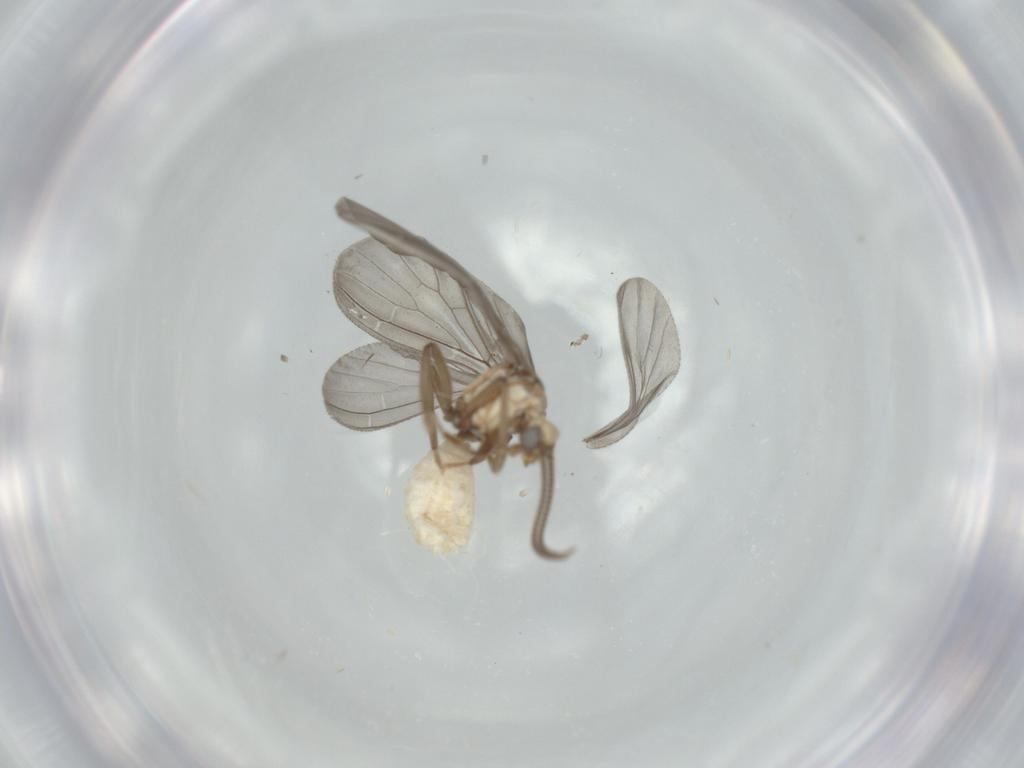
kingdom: Animalia
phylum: Arthropoda
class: Insecta
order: Neuroptera
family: Coniopterygidae
